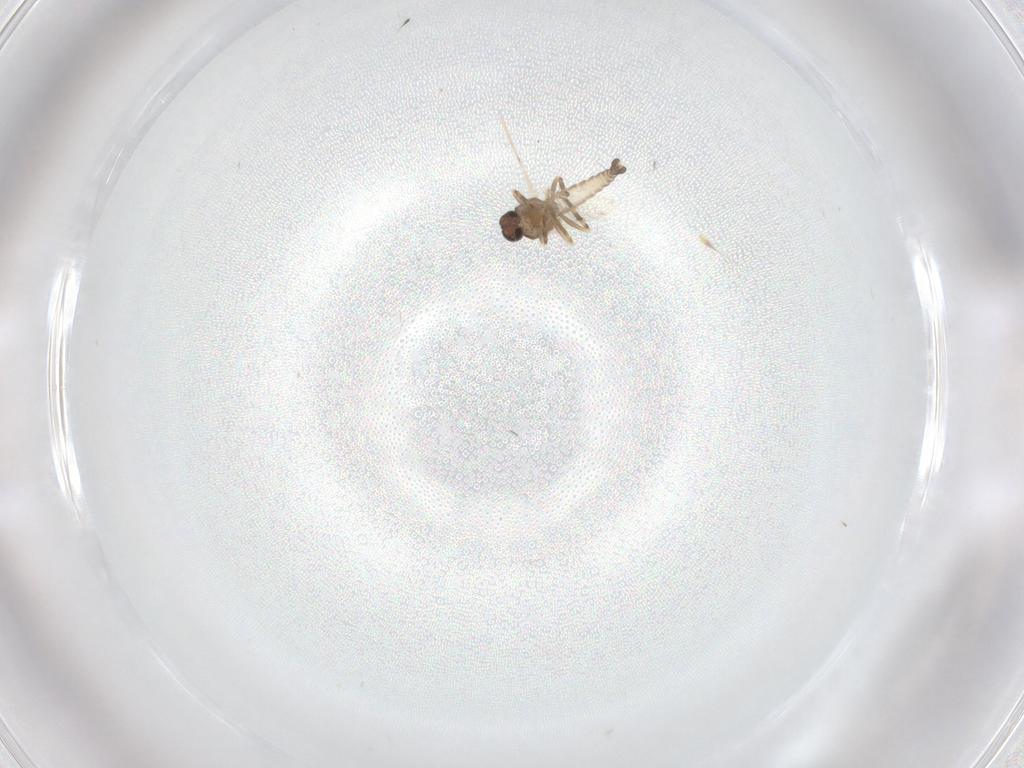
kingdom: Animalia
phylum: Arthropoda
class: Insecta
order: Diptera
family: Ceratopogonidae
